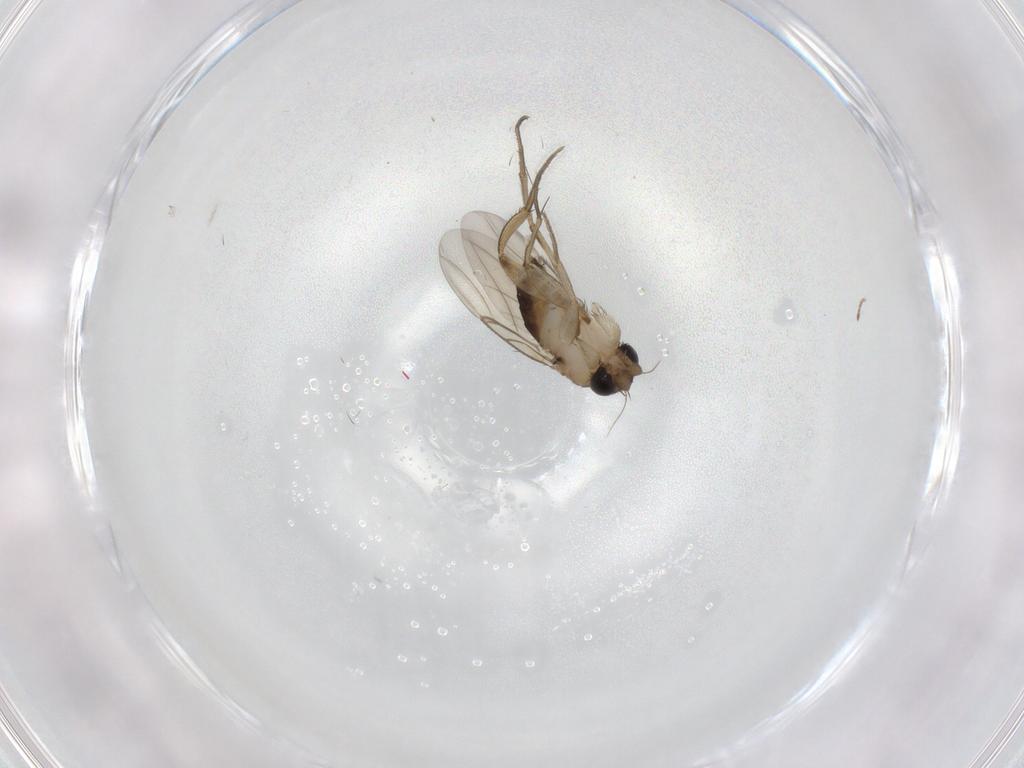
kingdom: Animalia
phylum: Arthropoda
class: Insecta
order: Diptera
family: Phoridae
